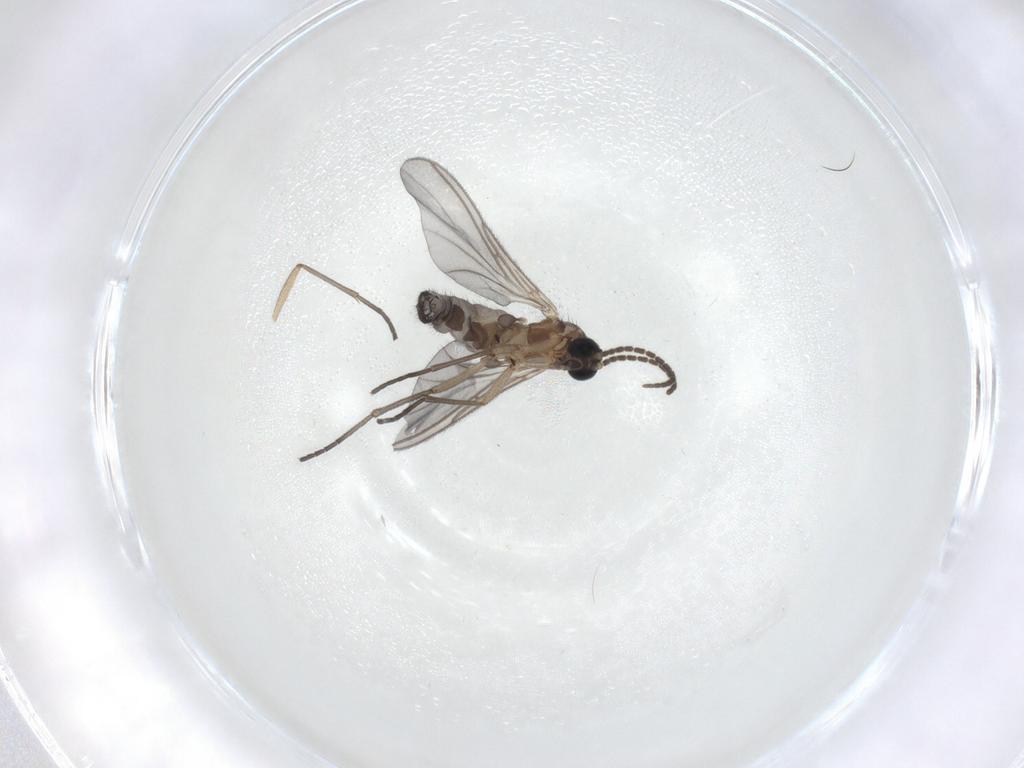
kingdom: Animalia
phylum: Arthropoda
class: Insecta
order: Diptera
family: Sciaridae
